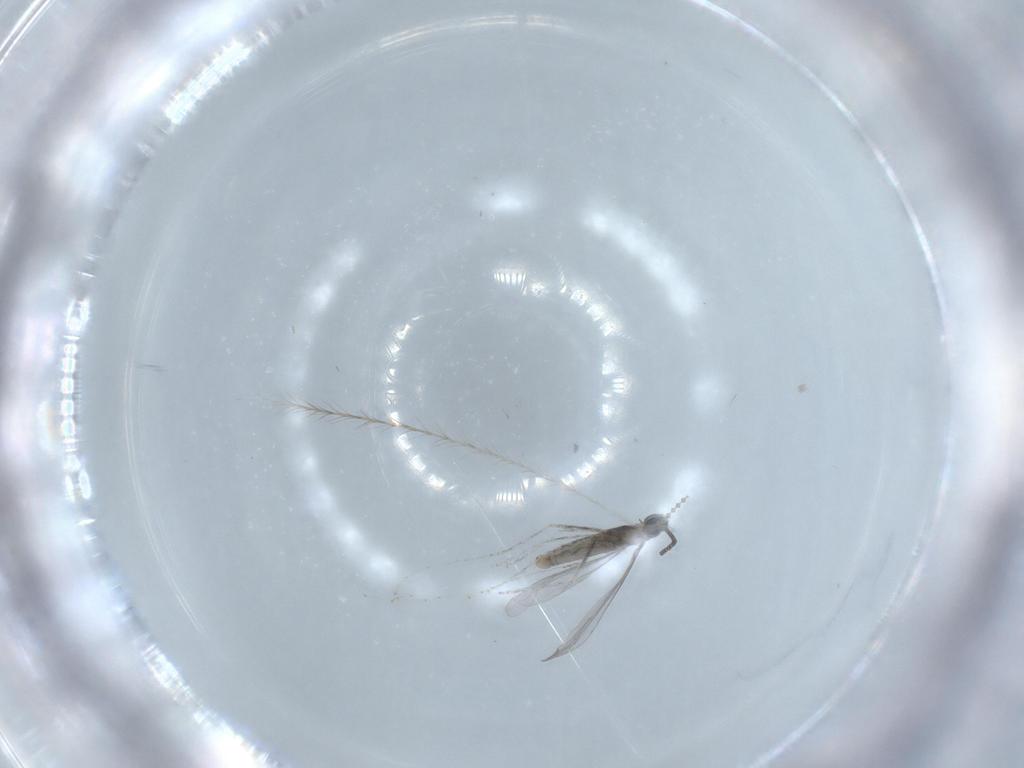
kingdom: Animalia
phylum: Arthropoda
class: Insecta
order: Diptera
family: Cecidomyiidae
